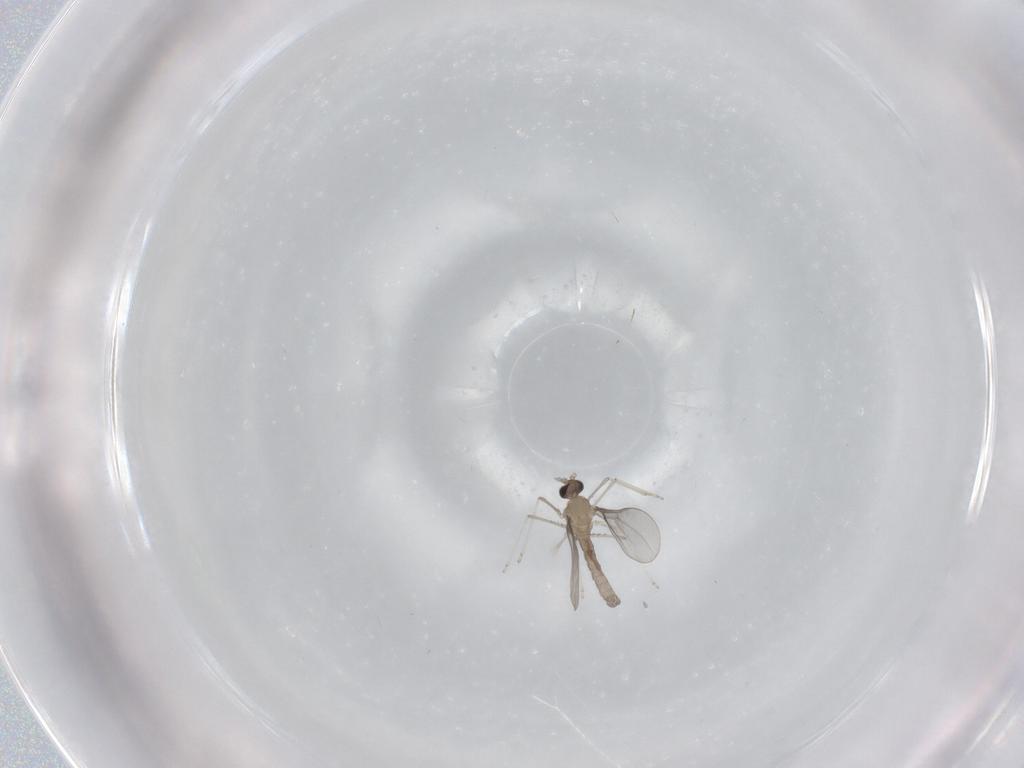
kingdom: Animalia
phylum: Arthropoda
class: Insecta
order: Diptera
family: Cecidomyiidae
